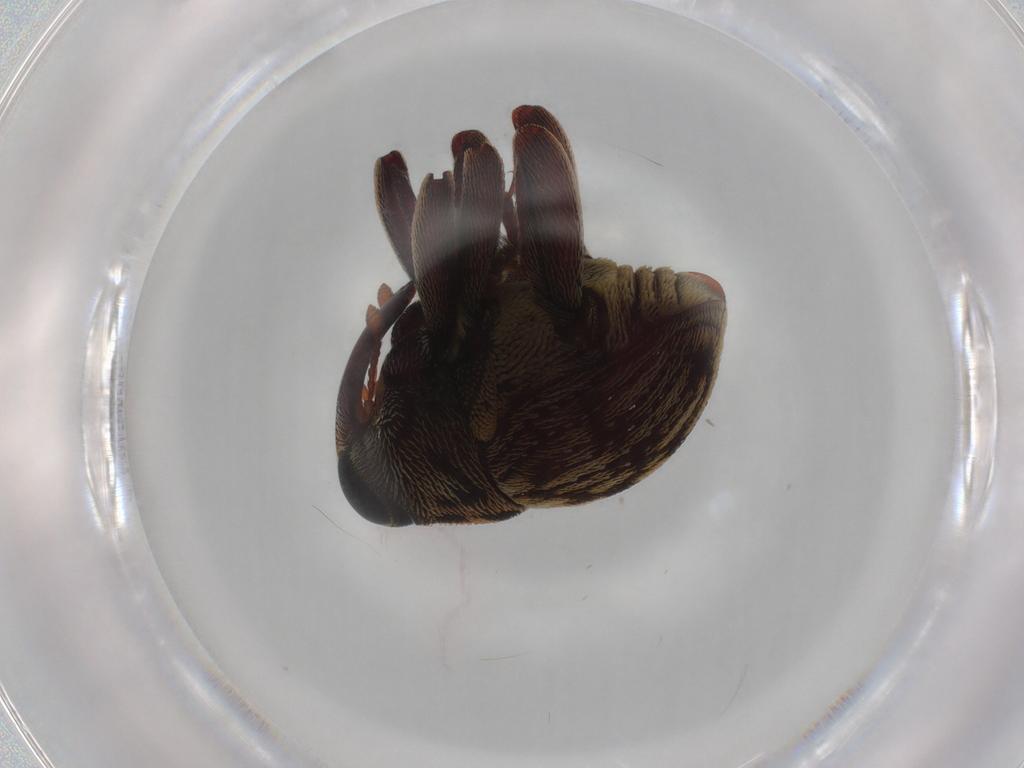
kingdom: Animalia
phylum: Arthropoda
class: Insecta
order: Coleoptera
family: Curculionidae
